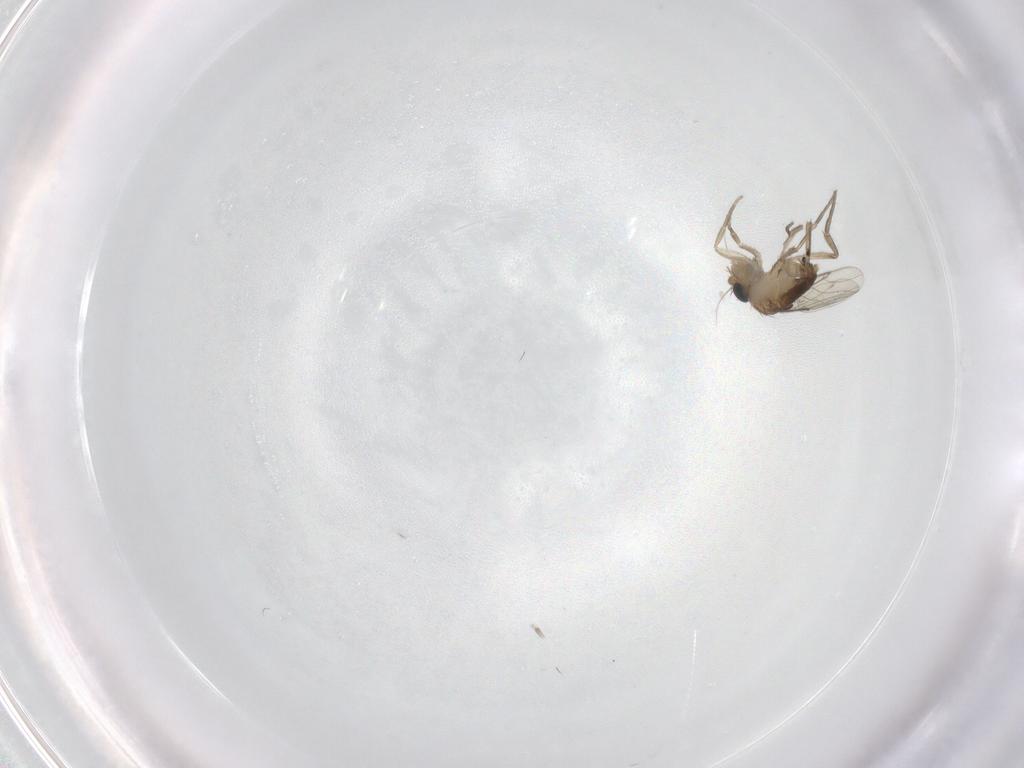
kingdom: Animalia
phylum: Arthropoda
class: Insecta
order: Diptera
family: Phoridae
